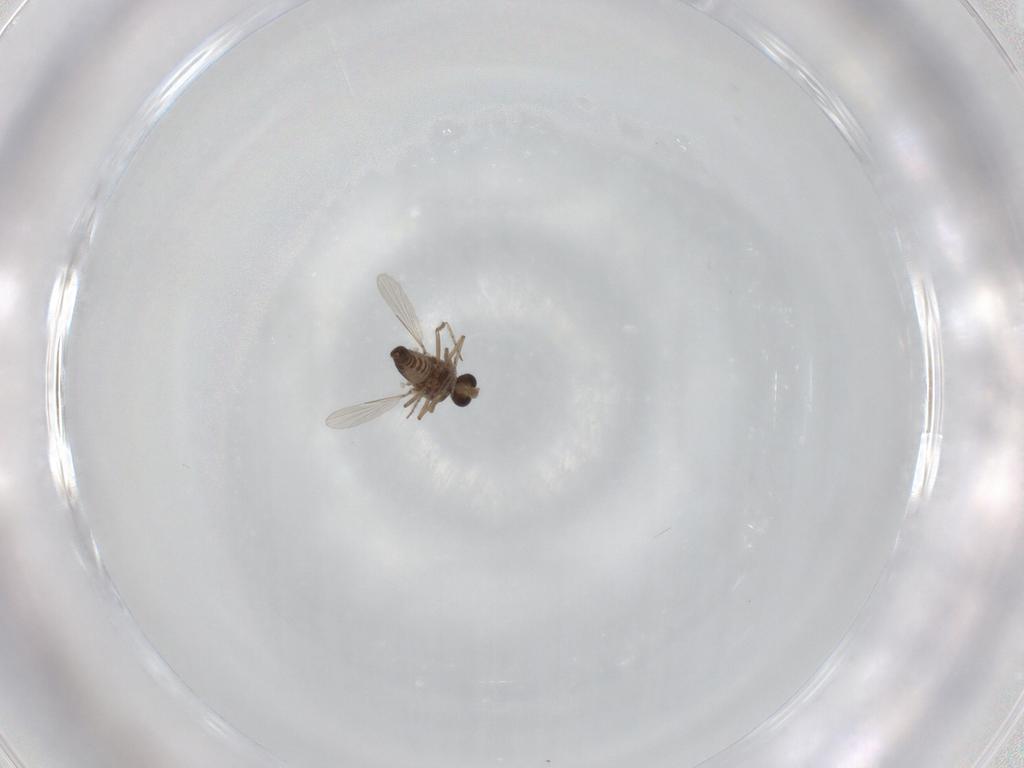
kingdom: Animalia
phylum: Arthropoda
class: Insecta
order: Diptera
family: Ceratopogonidae
